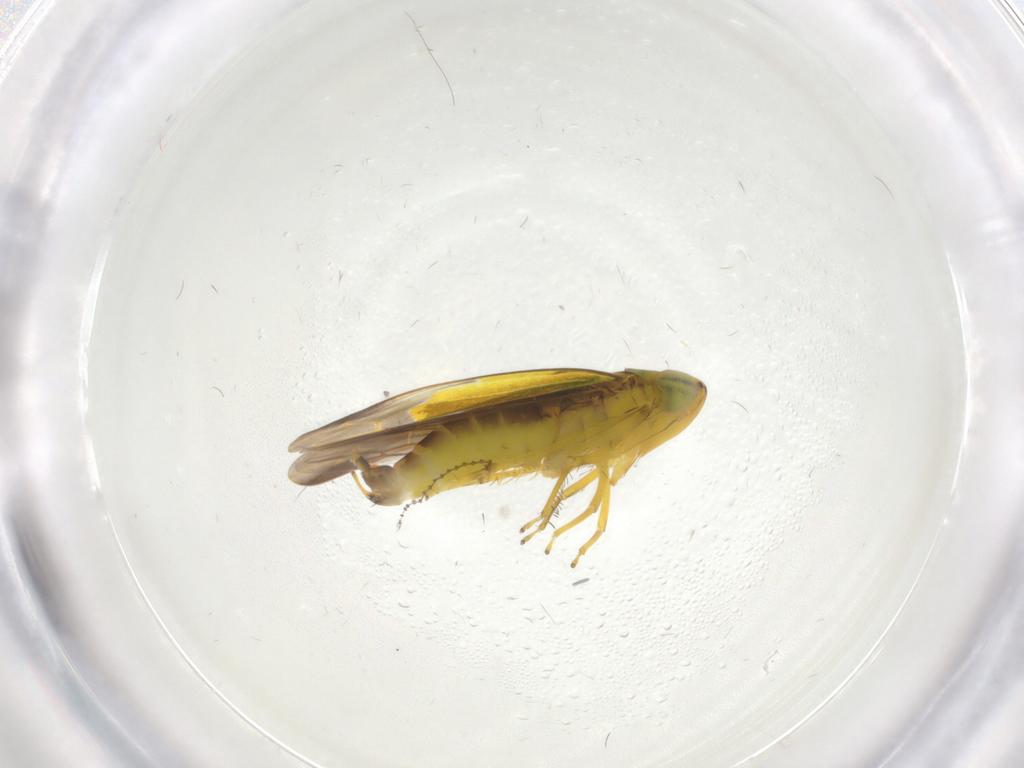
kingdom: Animalia
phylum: Arthropoda
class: Insecta
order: Hemiptera
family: Cicadellidae
